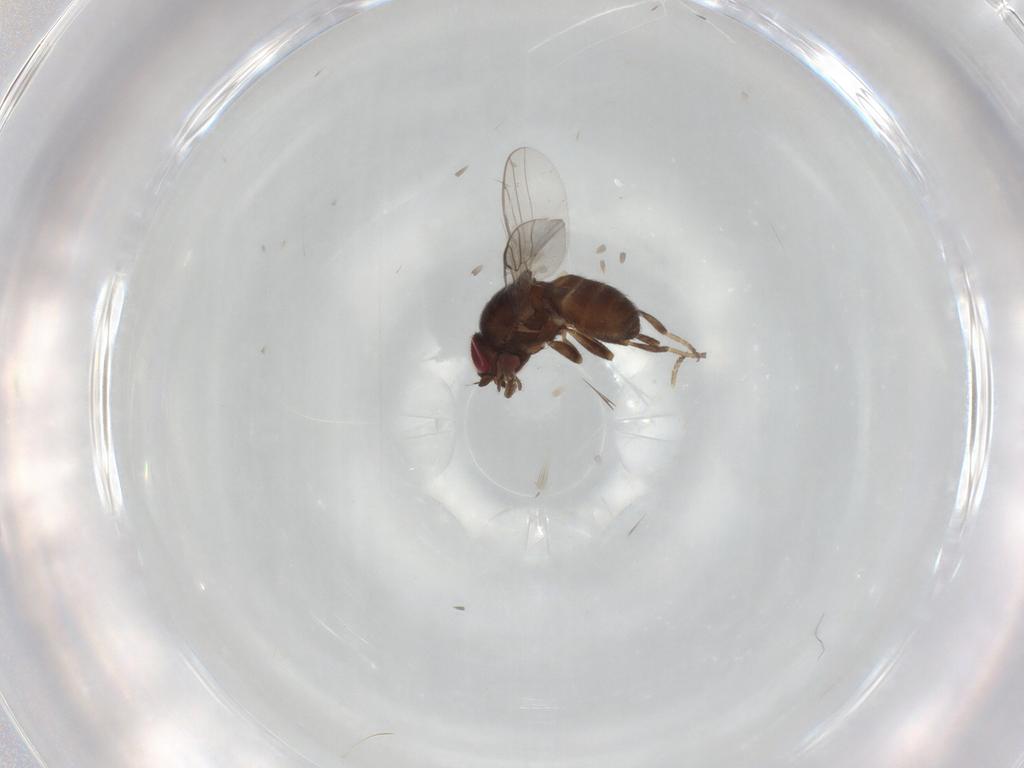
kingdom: Animalia
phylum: Arthropoda
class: Insecta
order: Diptera
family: Chloropidae
